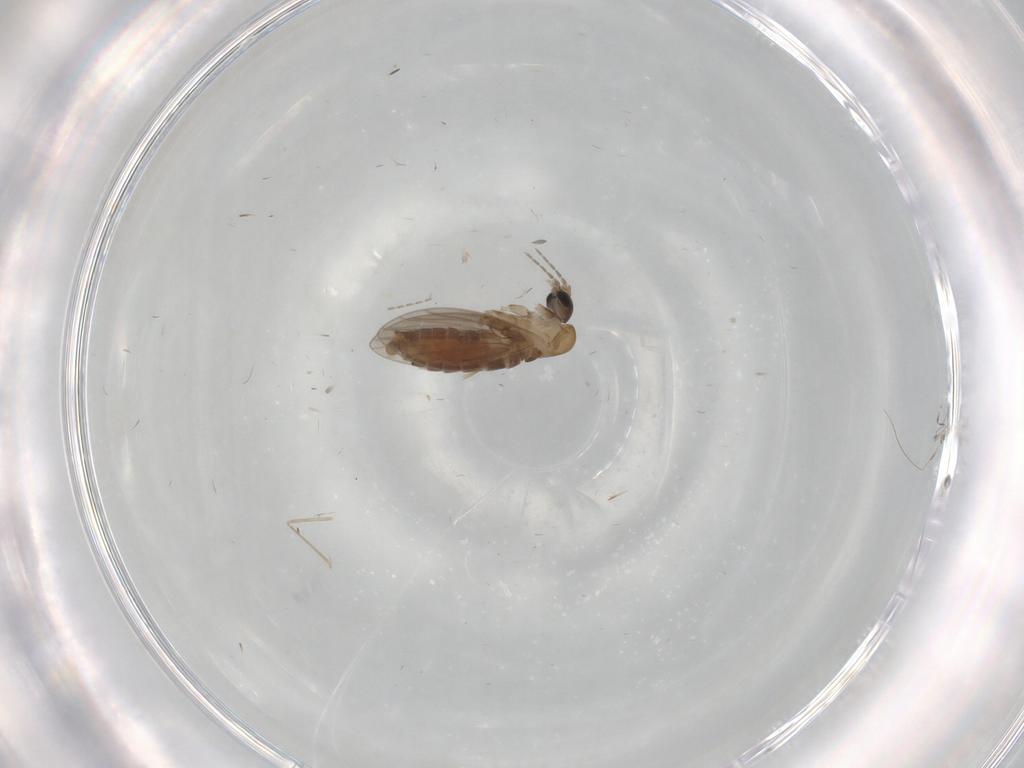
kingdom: Animalia
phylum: Arthropoda
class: Insecta
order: Diptera
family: Cecidomyiidae
